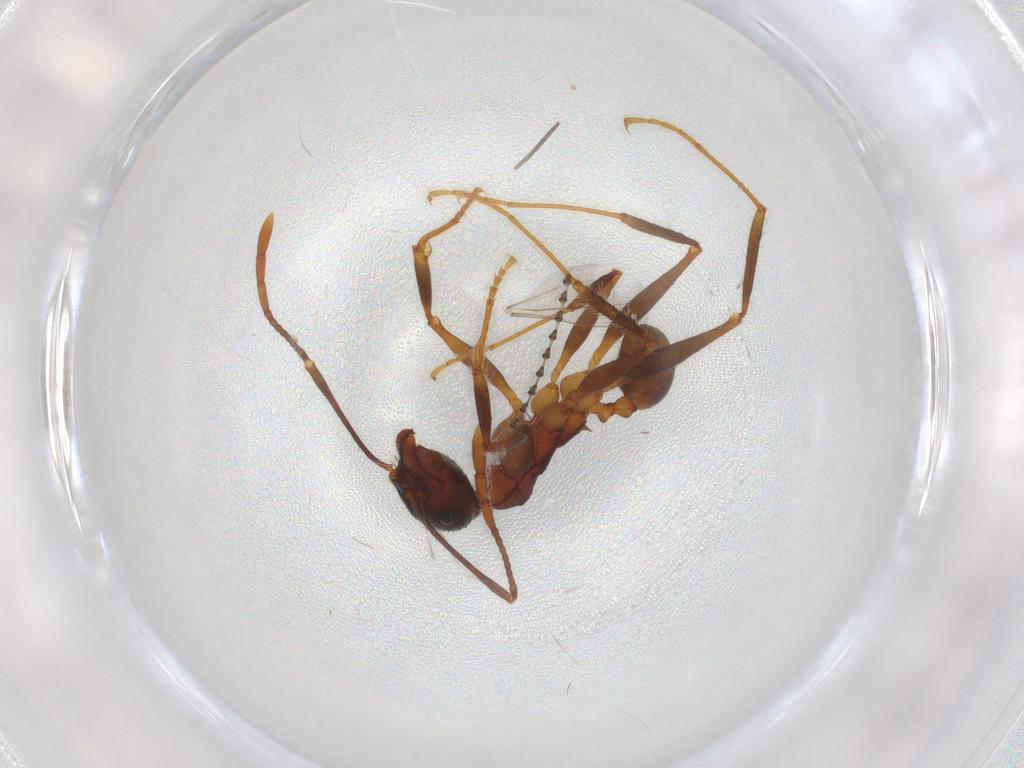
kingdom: Animalia
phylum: Arthropoda
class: Insecta
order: Hymenoptera
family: Formicidae
